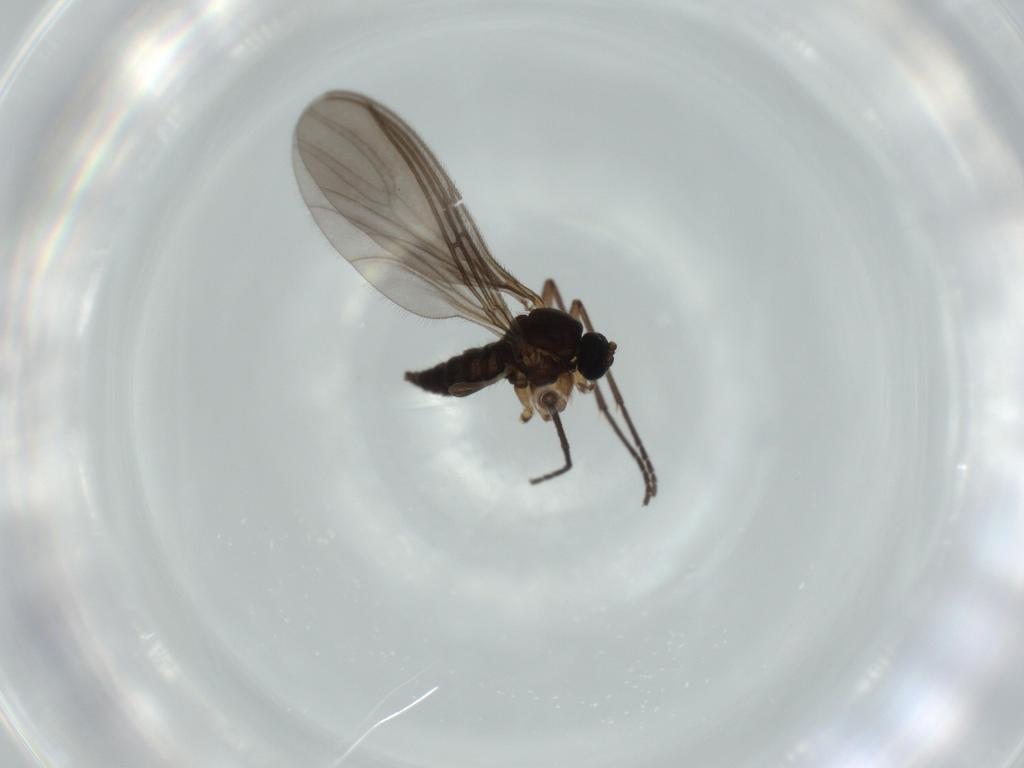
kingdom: Animalia
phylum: Arthropoda
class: Insecta
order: Diptera
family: Sciaridae
